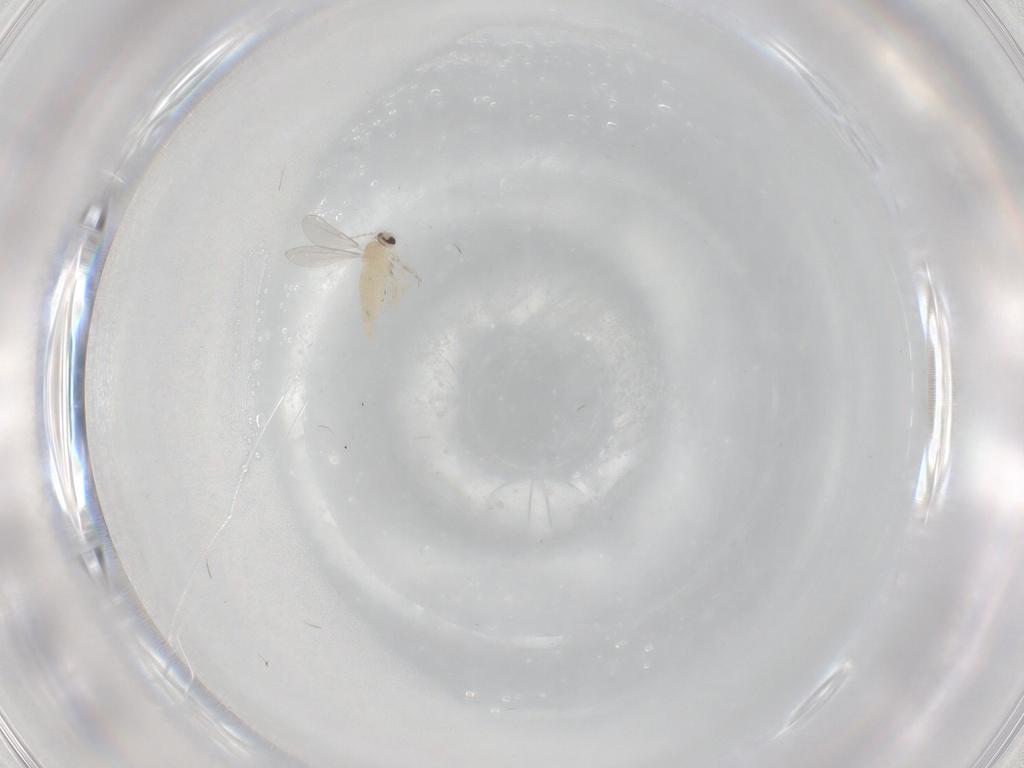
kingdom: Animalia
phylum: Arthropoda
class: Insecta
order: Diptera
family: Cecidomyiidae
